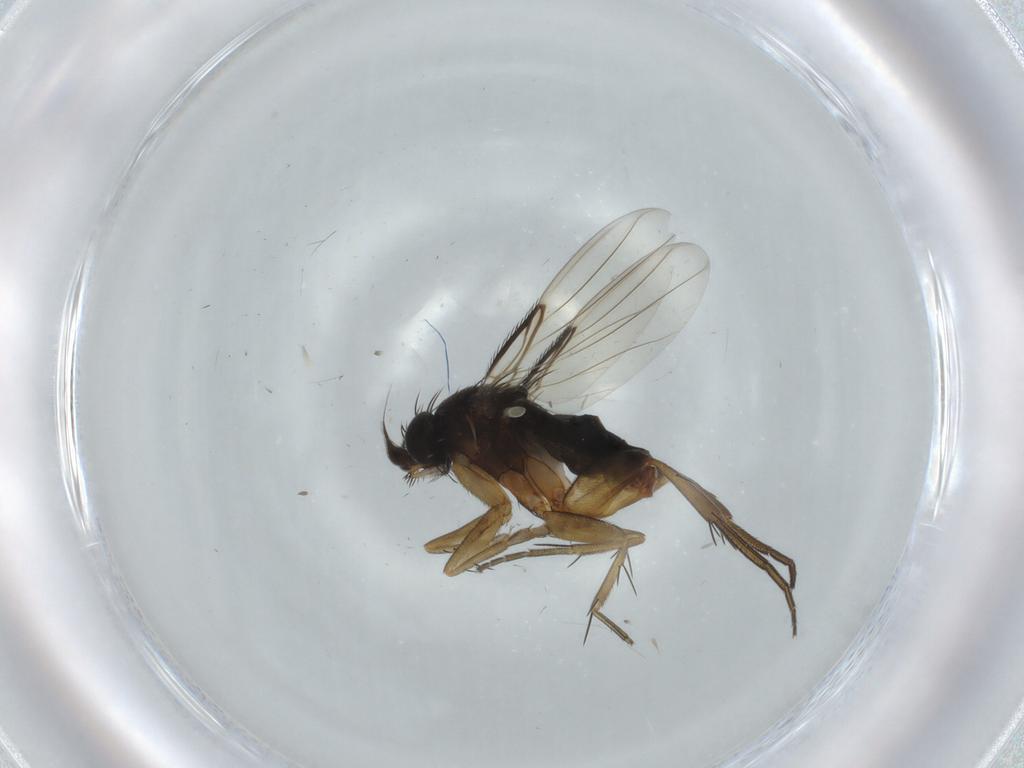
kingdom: Animalia
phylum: Arthropoda
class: Insecta
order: Diptera
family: Phoridae
